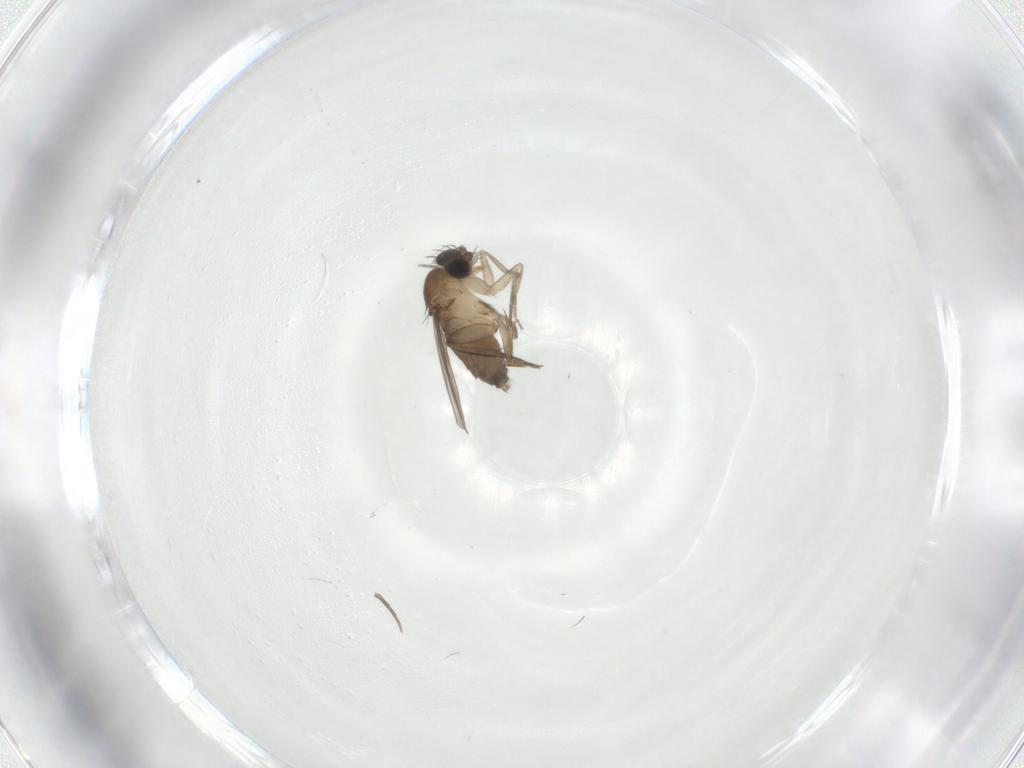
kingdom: Animalia
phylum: Arthropoda
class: Insecta
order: Diptera
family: Phoridae
